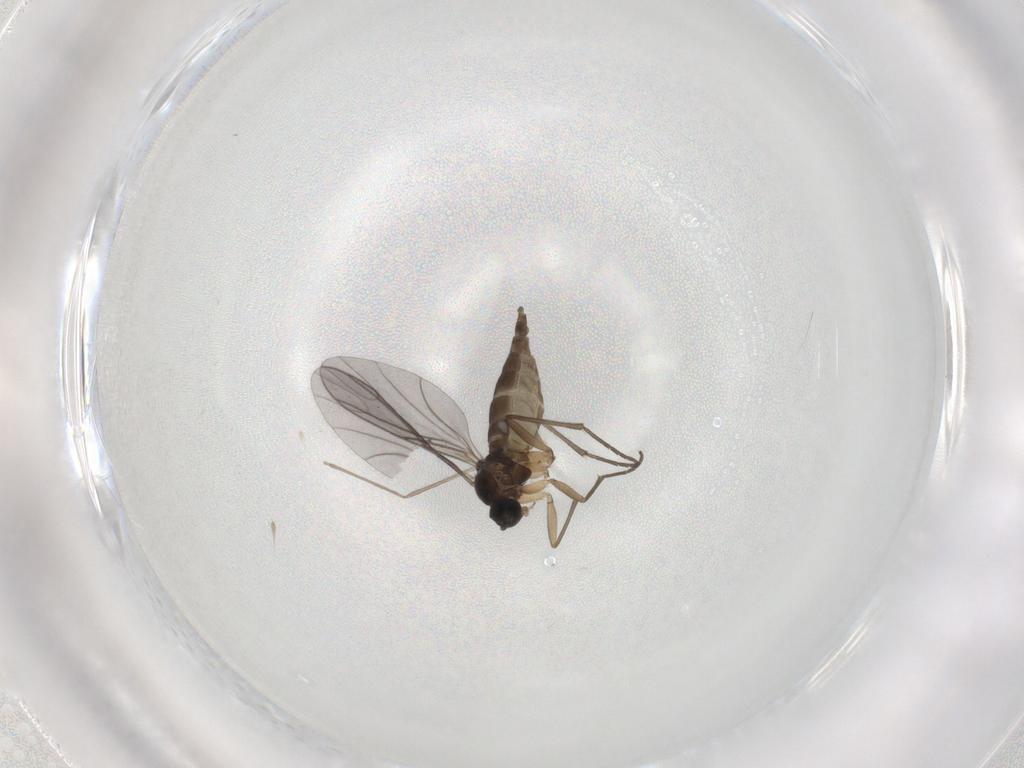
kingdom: Animalia
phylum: Arthropoda
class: Insecta
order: Diptera
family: Sciaridae
